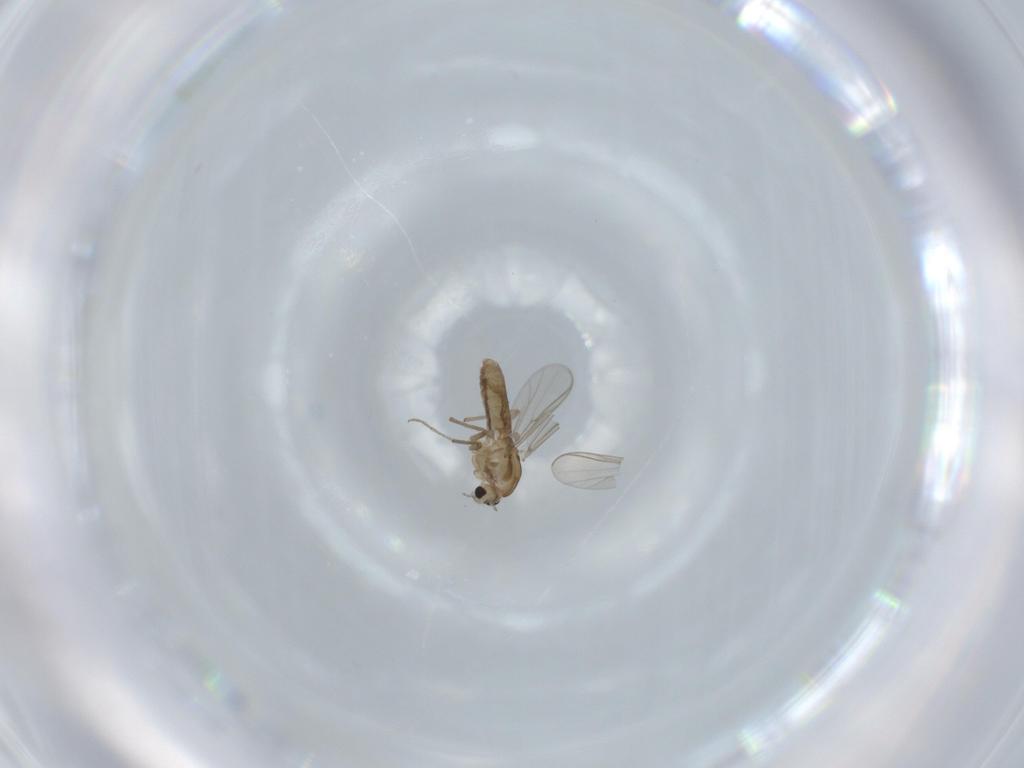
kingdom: Animalia
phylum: Arthropoda
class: Insecta
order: Diptera
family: Chironomidae
